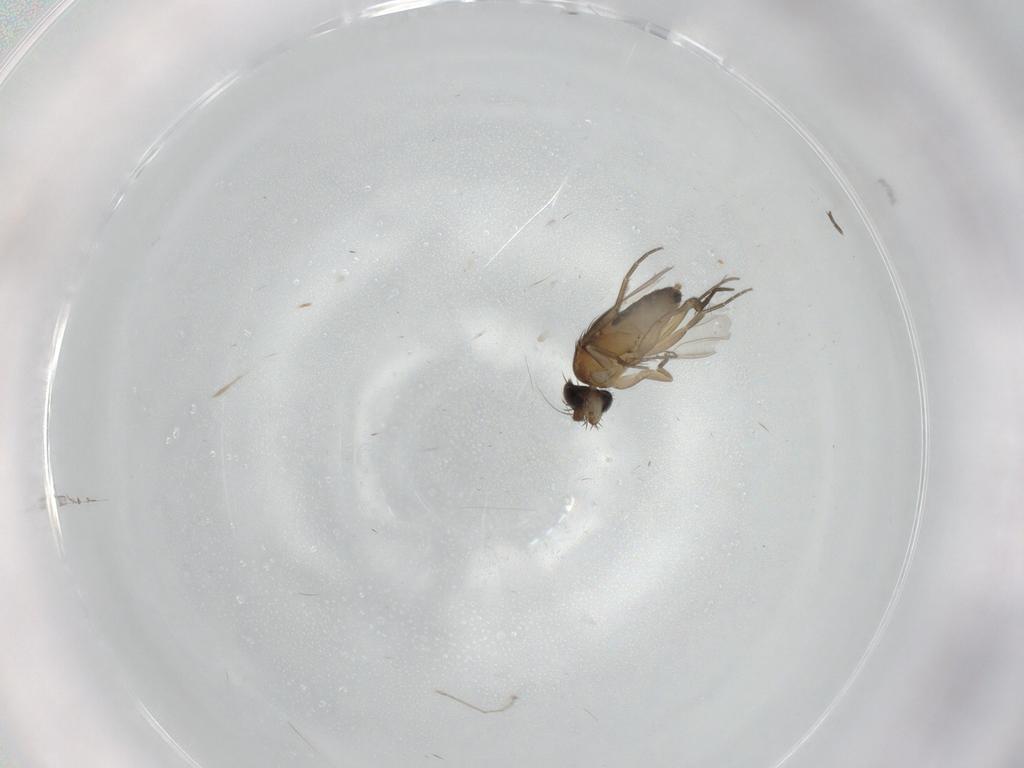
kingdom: Animalia
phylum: Arthropoda
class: Insecta
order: Diptera
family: Phoridae
